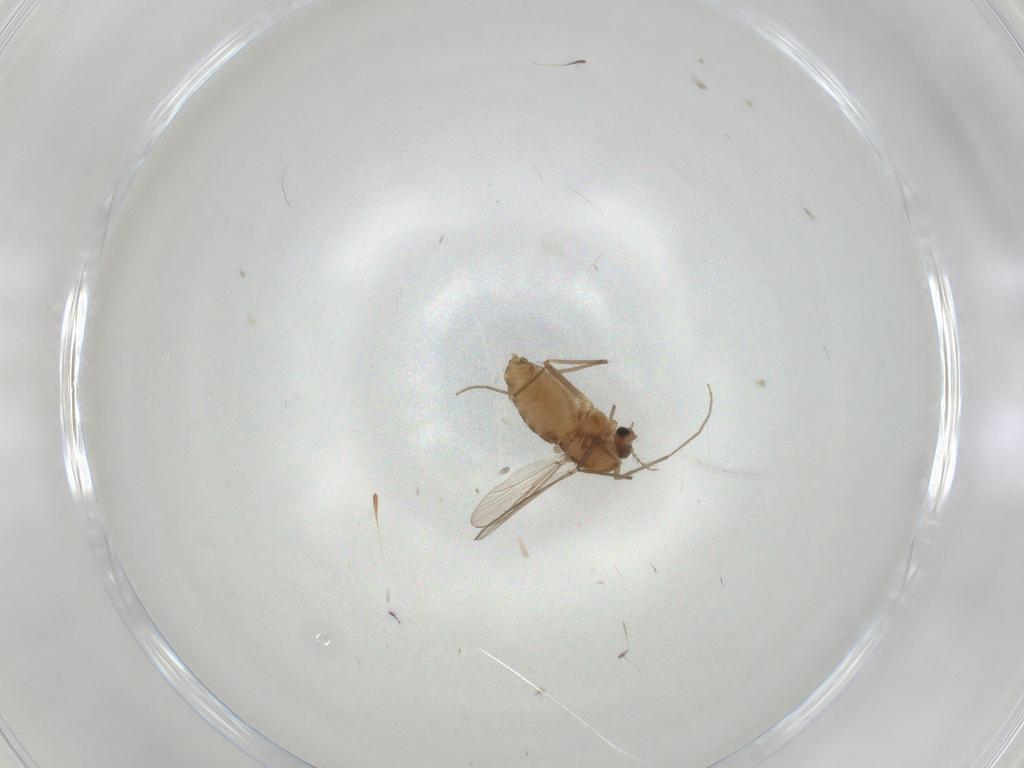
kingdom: Animalia
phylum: Arthropoda
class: Insecta
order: Diptera
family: Chironomidae
